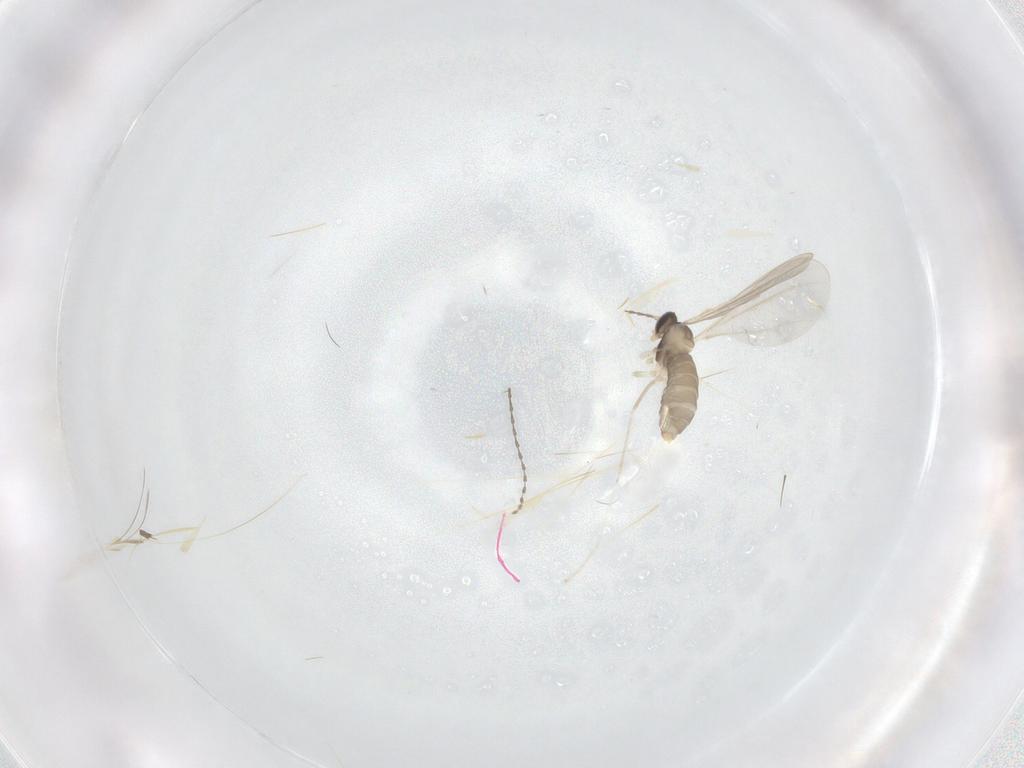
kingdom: Animalia
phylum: Arthropoda
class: Insecta
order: Diptera
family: Cecidomyiidae
